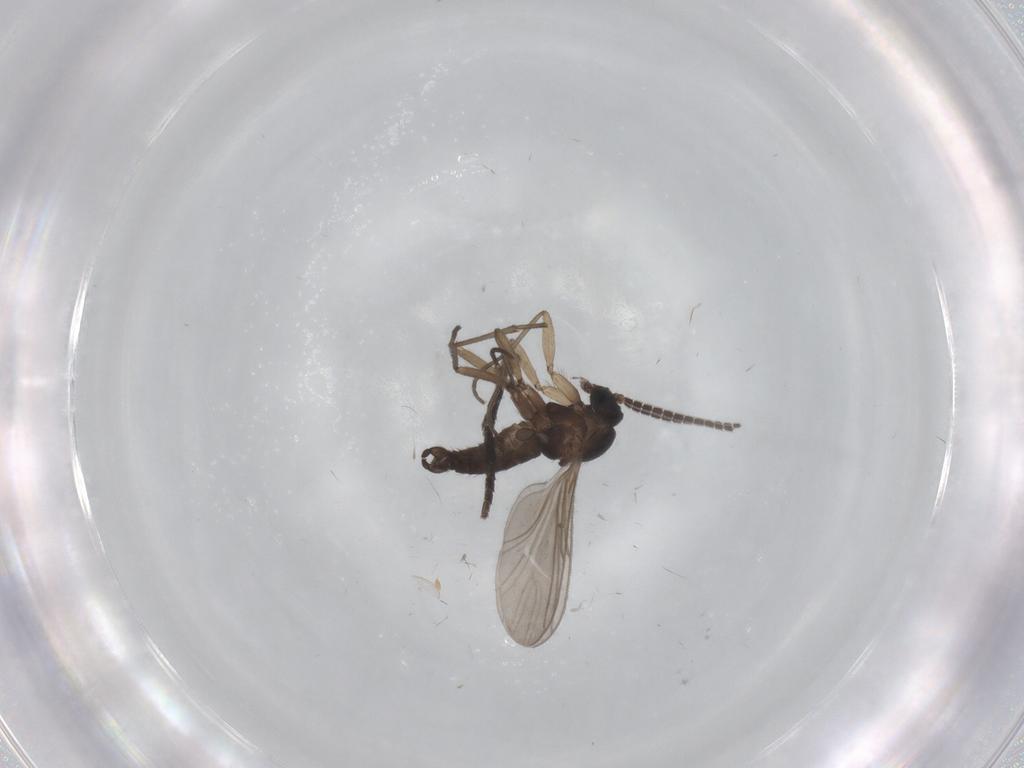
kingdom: Animalia
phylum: Arthropoda
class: Insecta
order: Diptera
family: Sciaridae
